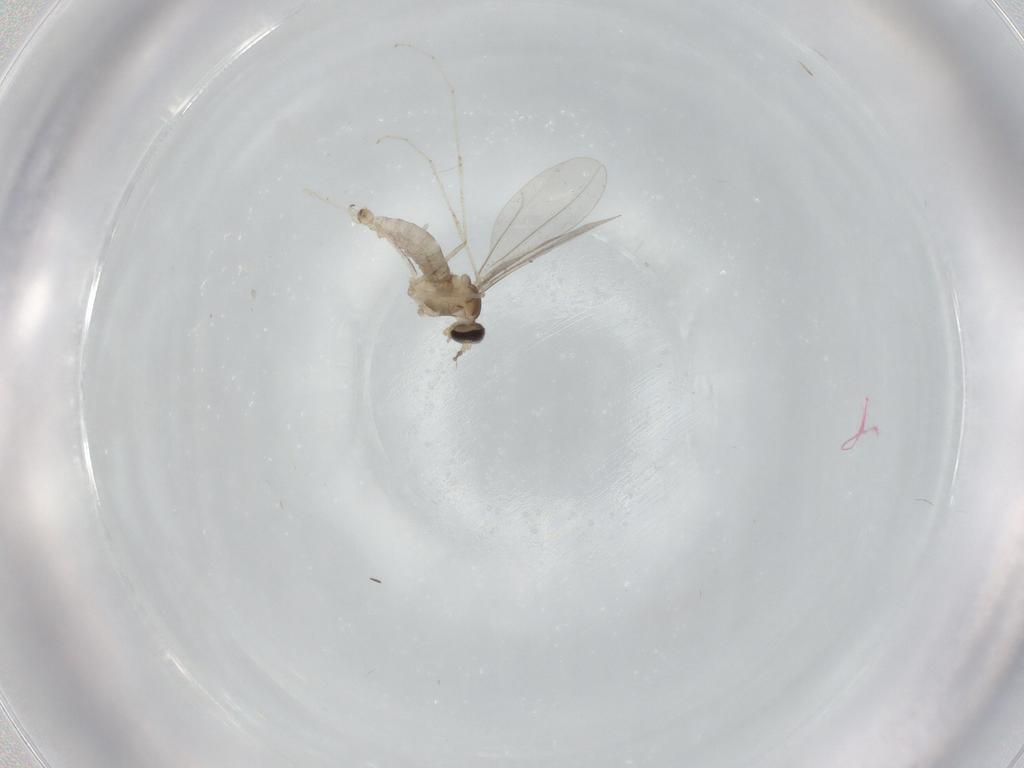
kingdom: Animalia
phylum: Arthropoda
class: Insecta
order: Diptera
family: Cecidomyiidae
